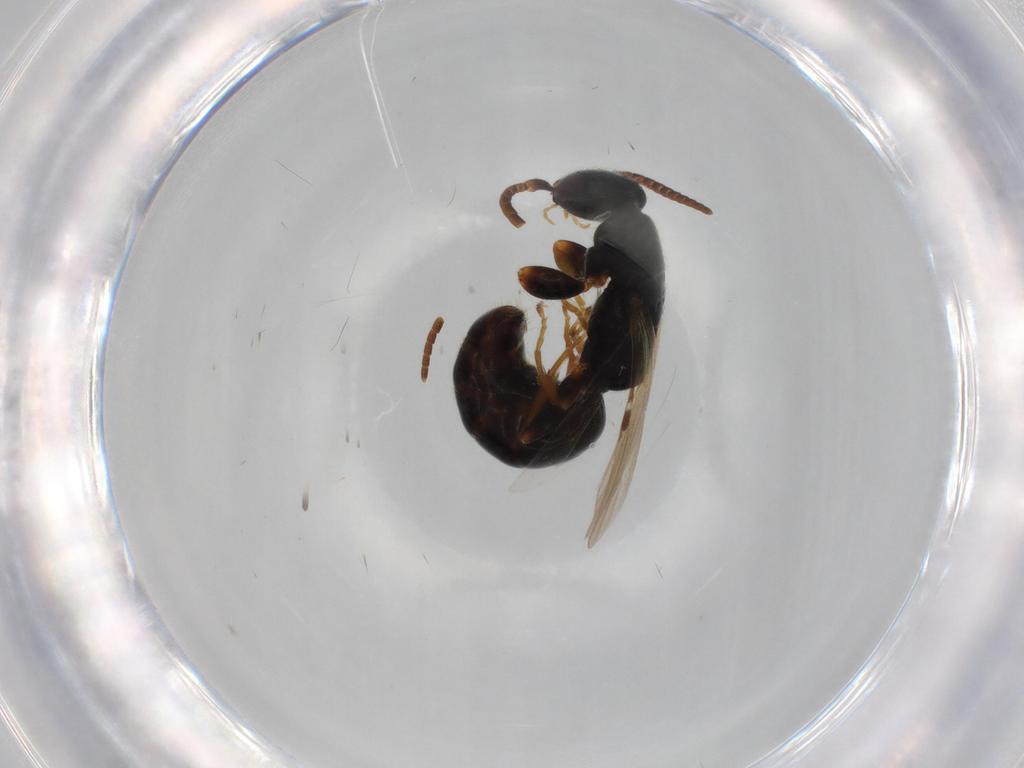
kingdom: Animalia
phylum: Arthropoda
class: Insecta
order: Hymenoptera
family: Bethylidae
